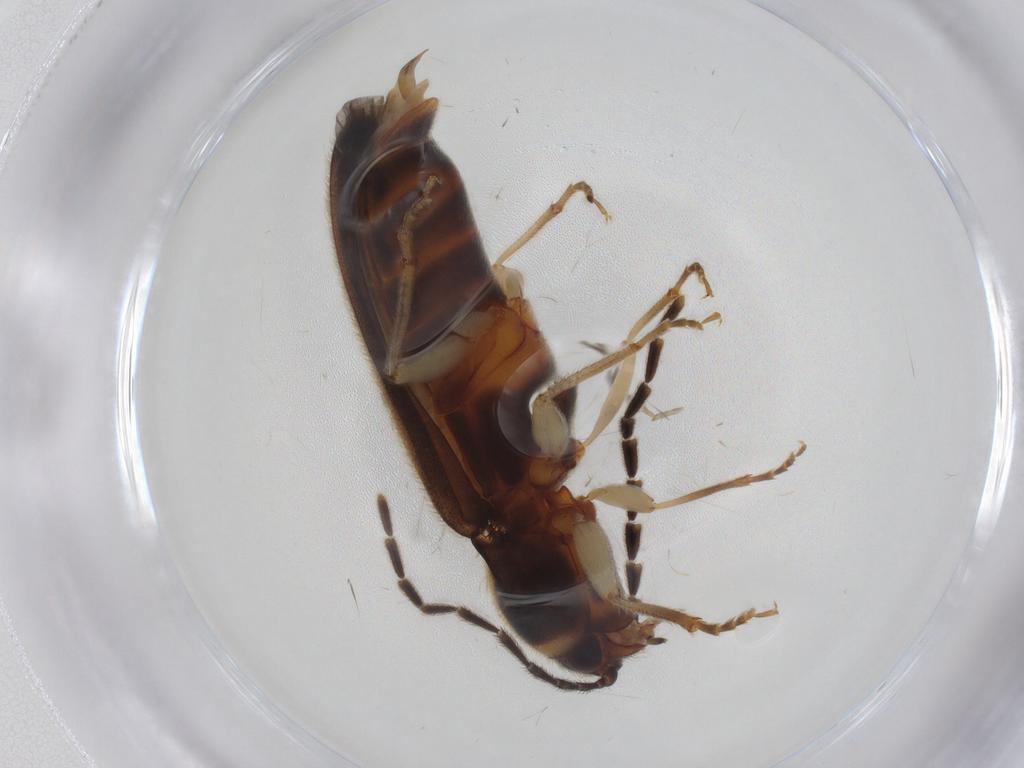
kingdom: Animalia
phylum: Arthropoda
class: Insecta
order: Coleoptera
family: Elateridae
